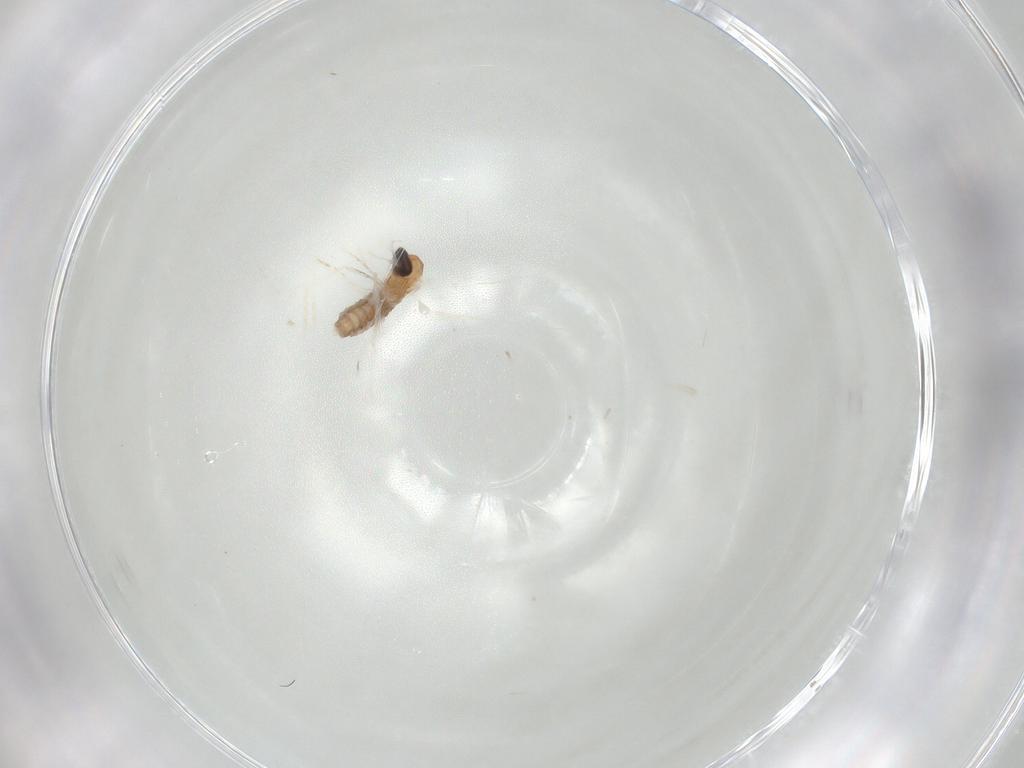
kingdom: Animalia
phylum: Arthropoda
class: Insecta
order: Diptera
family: Cecidomyiidae
